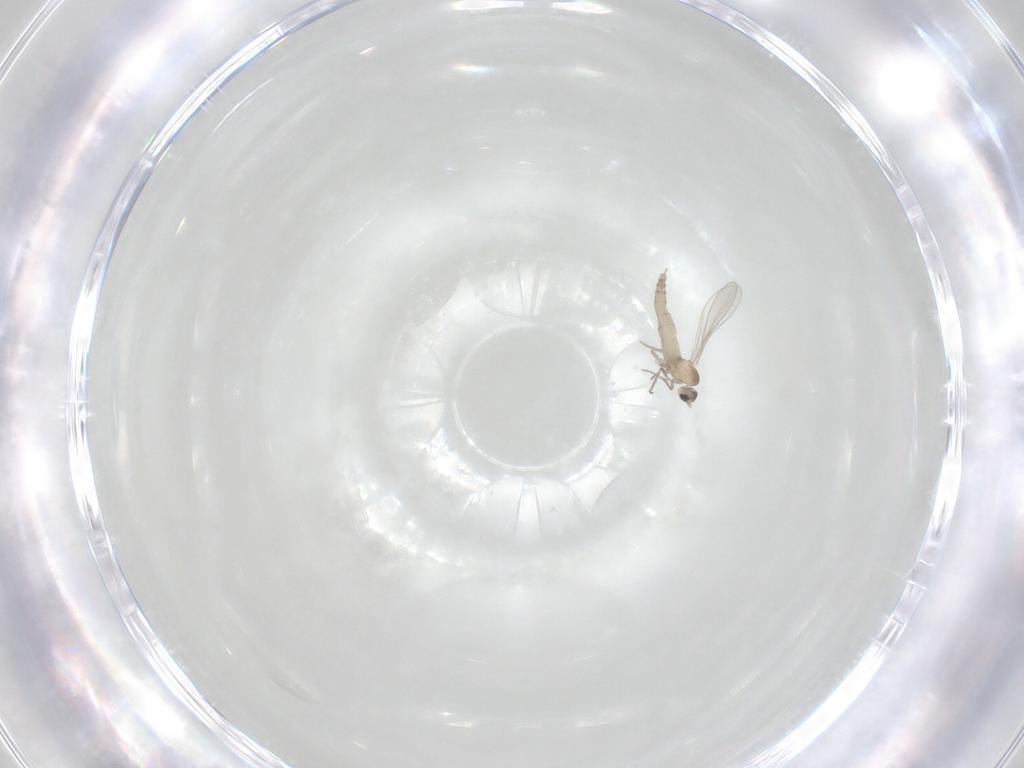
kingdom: Animalia
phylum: Arthropoda
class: Insecta
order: Diptera
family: Cecidomyiidae
